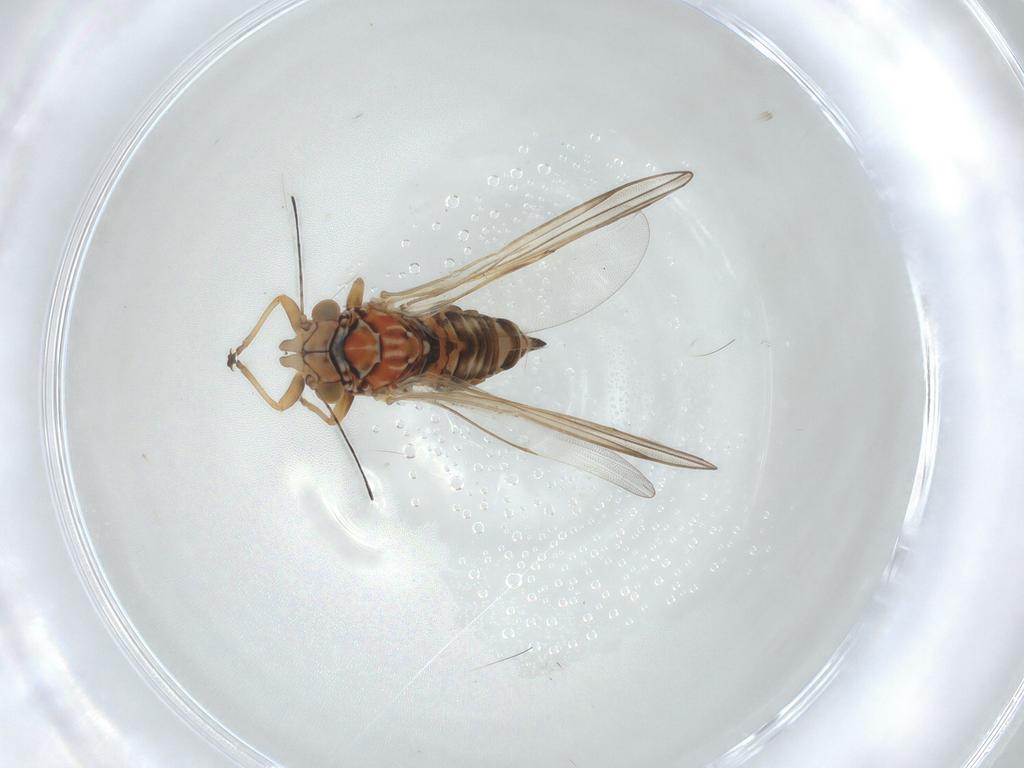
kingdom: Animalia
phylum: Arthropoda
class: Insecta
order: Hemiptera
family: Psyllidae
